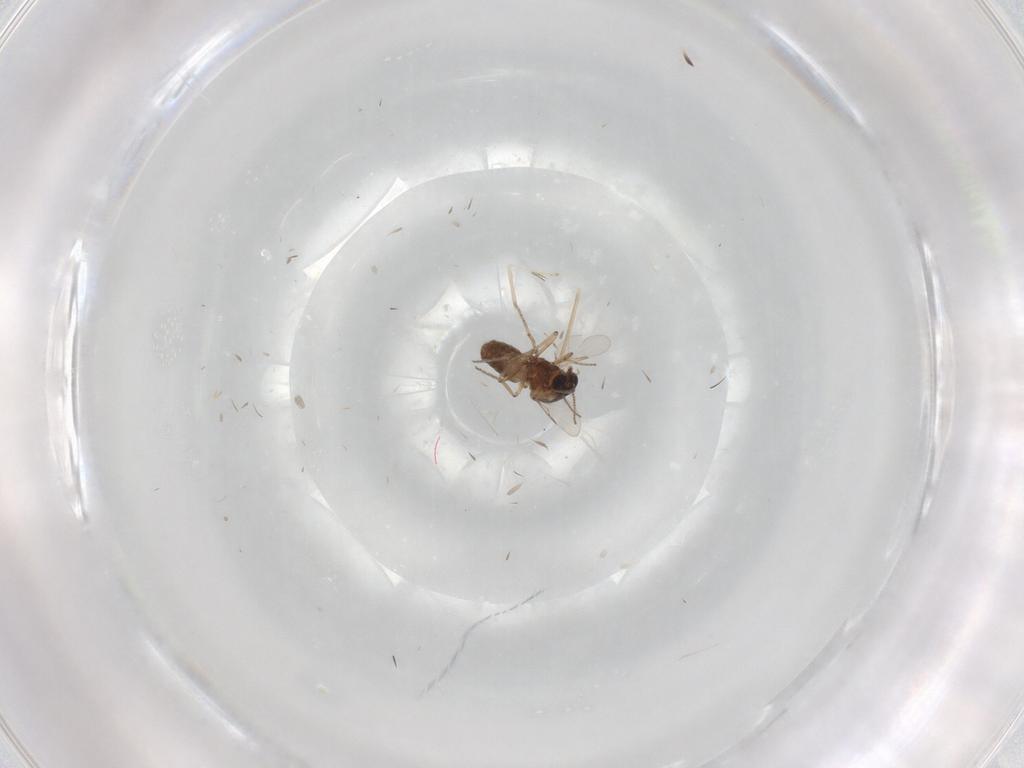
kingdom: Animalia
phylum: Arthropoda
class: Insecta
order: Diptera
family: Ceratopogonidae
